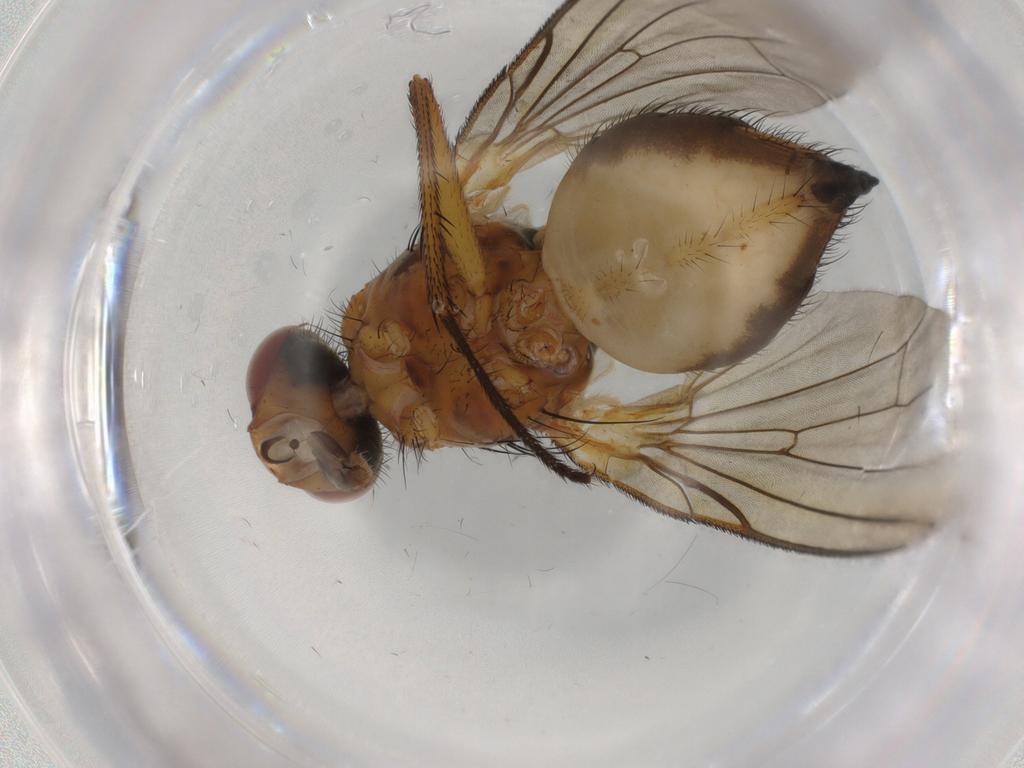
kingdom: Animalia
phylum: Arthropoda
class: Insecta
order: Diptera
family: Anthomyiidae
